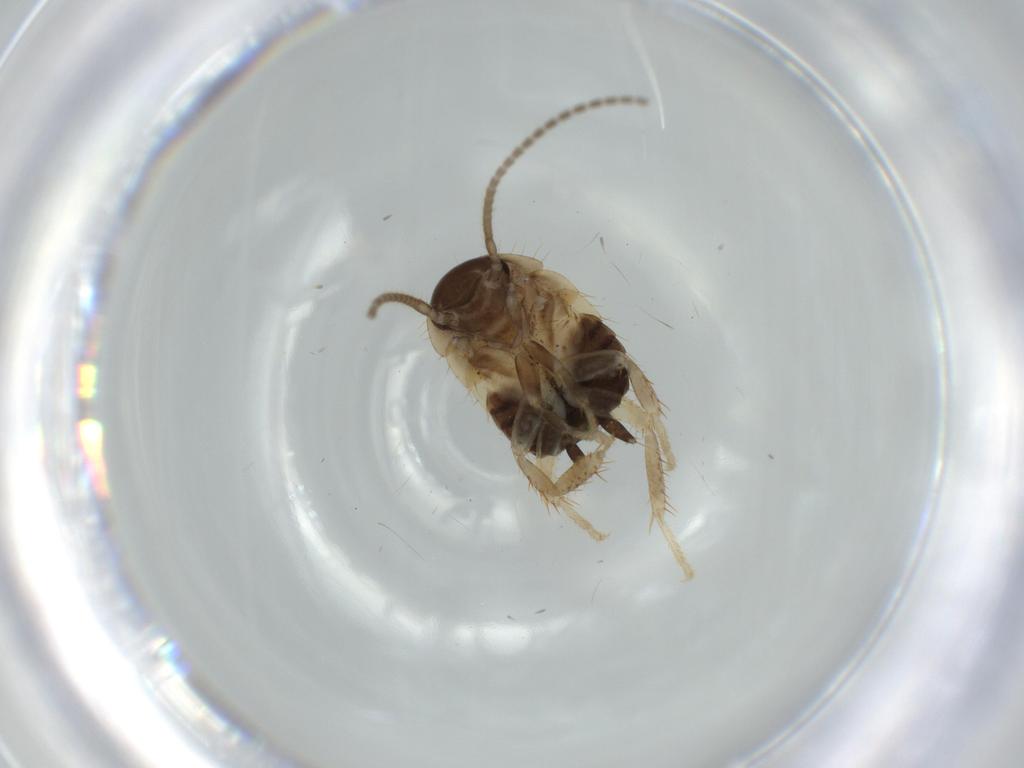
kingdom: Animalia
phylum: Arthropoda
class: Insecta
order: Blattodea
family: Ectobiidae
